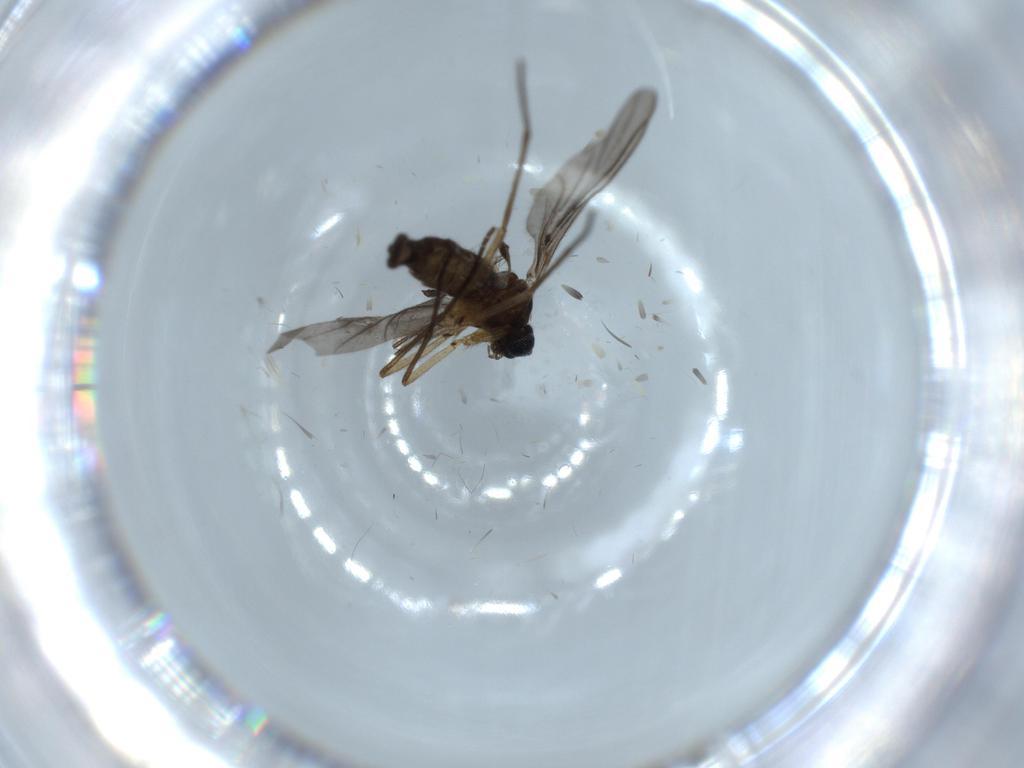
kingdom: Animalia
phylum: Arthropoda
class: Insecta
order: Diptera
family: Sciaridae
